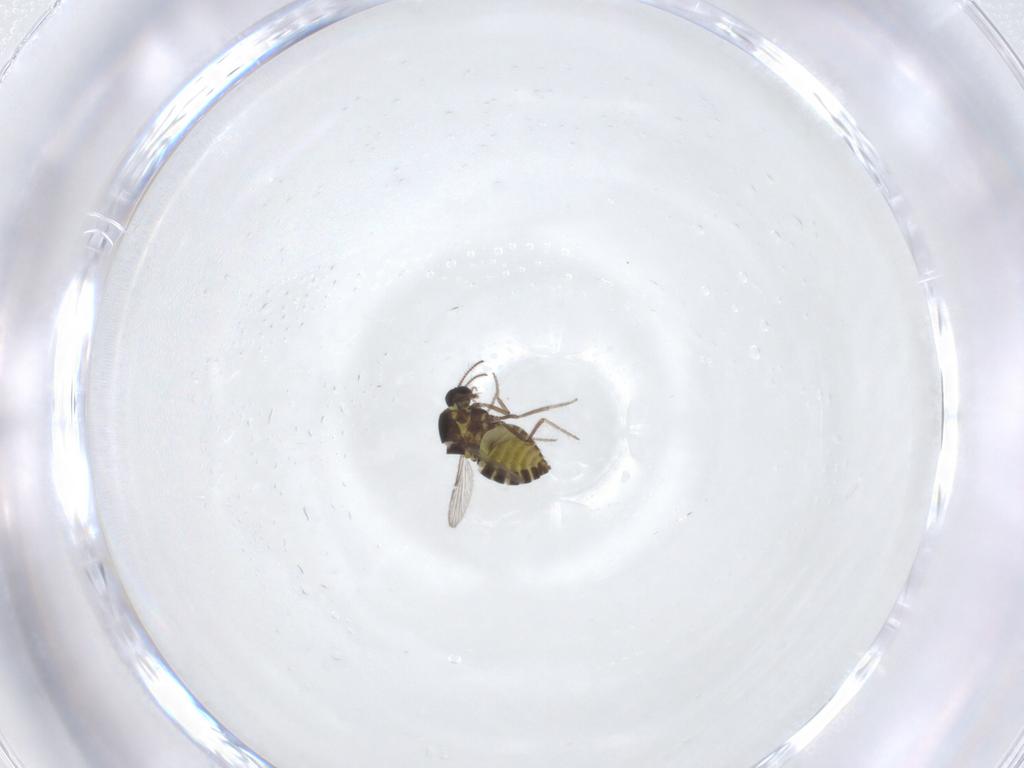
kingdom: Animalia
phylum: Arthropoda
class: Insecta
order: Diptera
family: Ceratopogonidae
